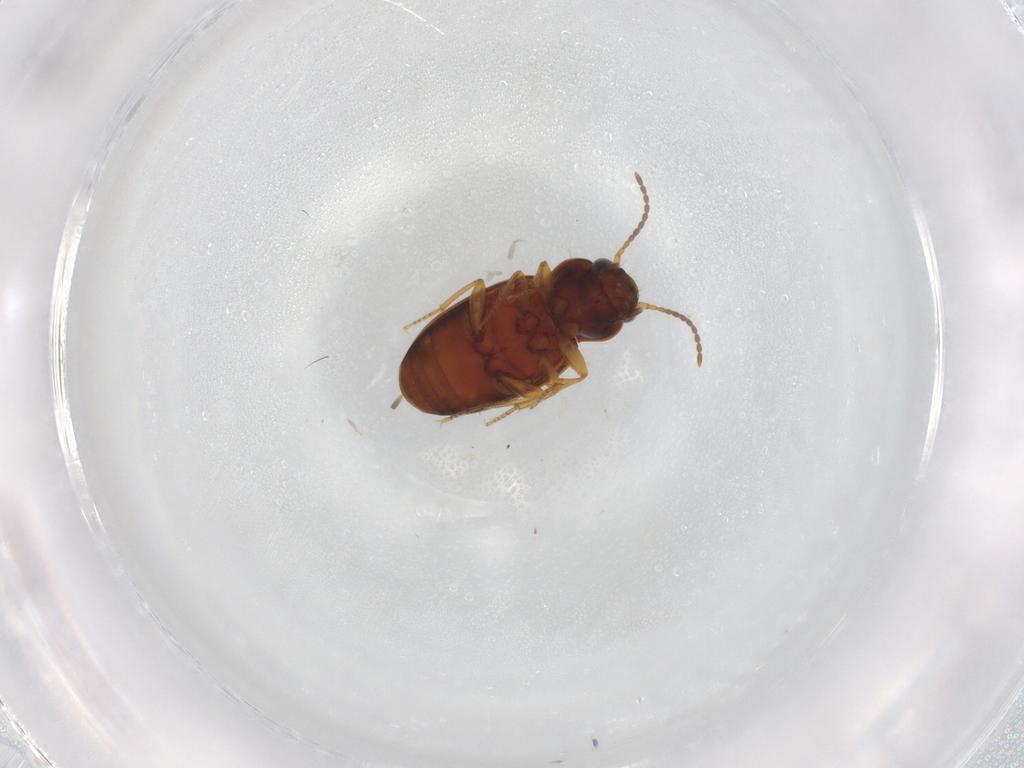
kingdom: Animalia
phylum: Arthropoda
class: Insecta
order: Coleoptera
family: Carabidae
